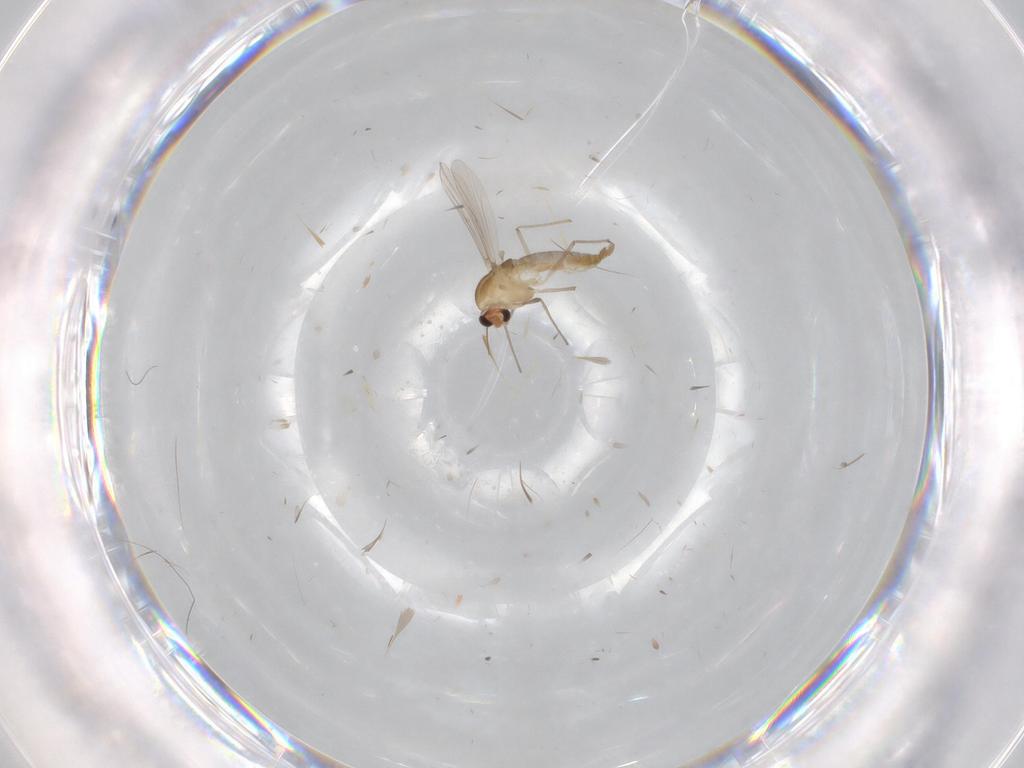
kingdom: Animalia
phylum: Arthropoda
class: Insecta
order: Diptera
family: Chironomidae
